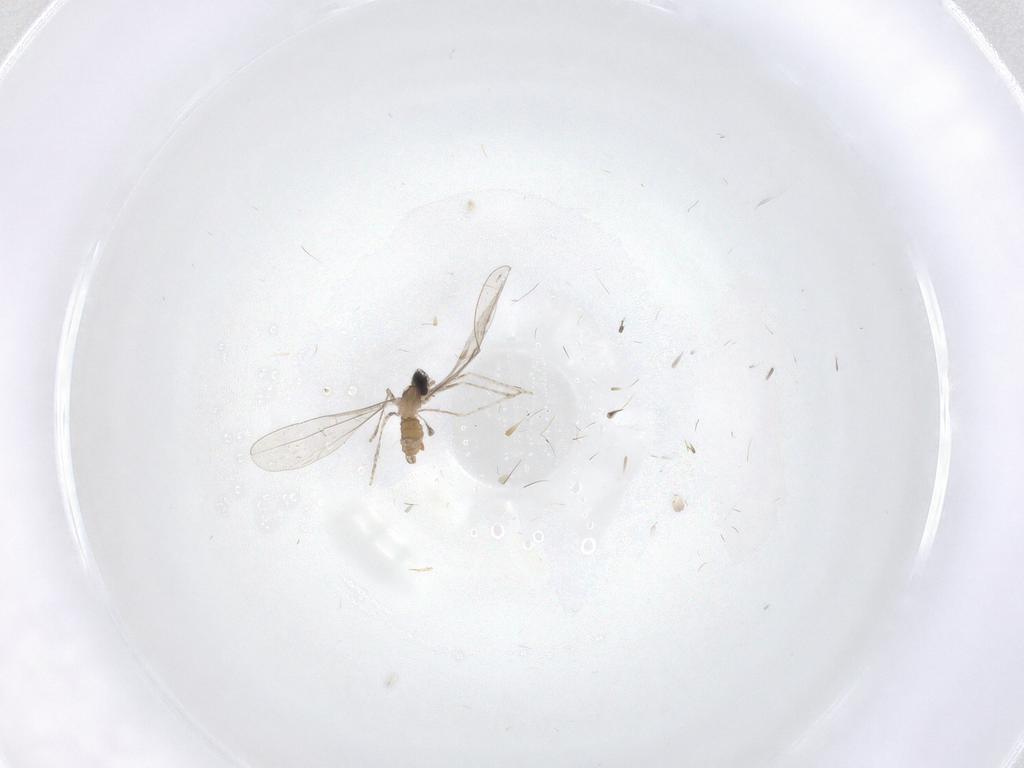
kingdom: Animalia
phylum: Arthropoda
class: Insecta
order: Diptera
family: Cecidomyiidae
